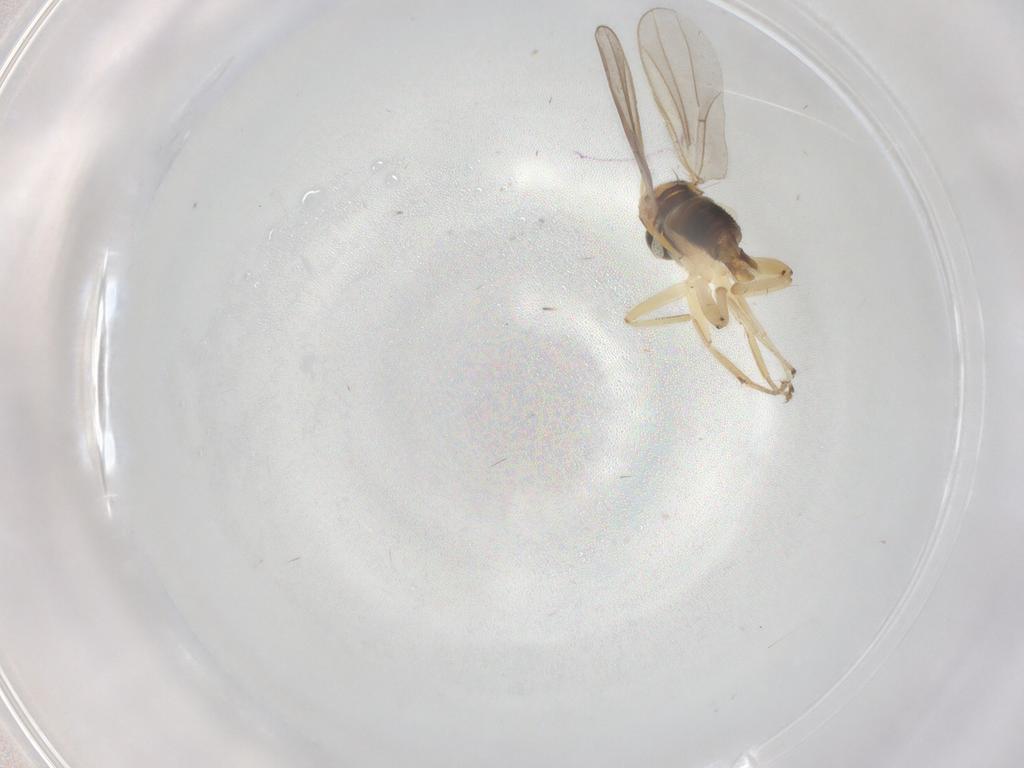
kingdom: Animalia
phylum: Arthropoda
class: Insecta
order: Diptera
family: Hybotidae
